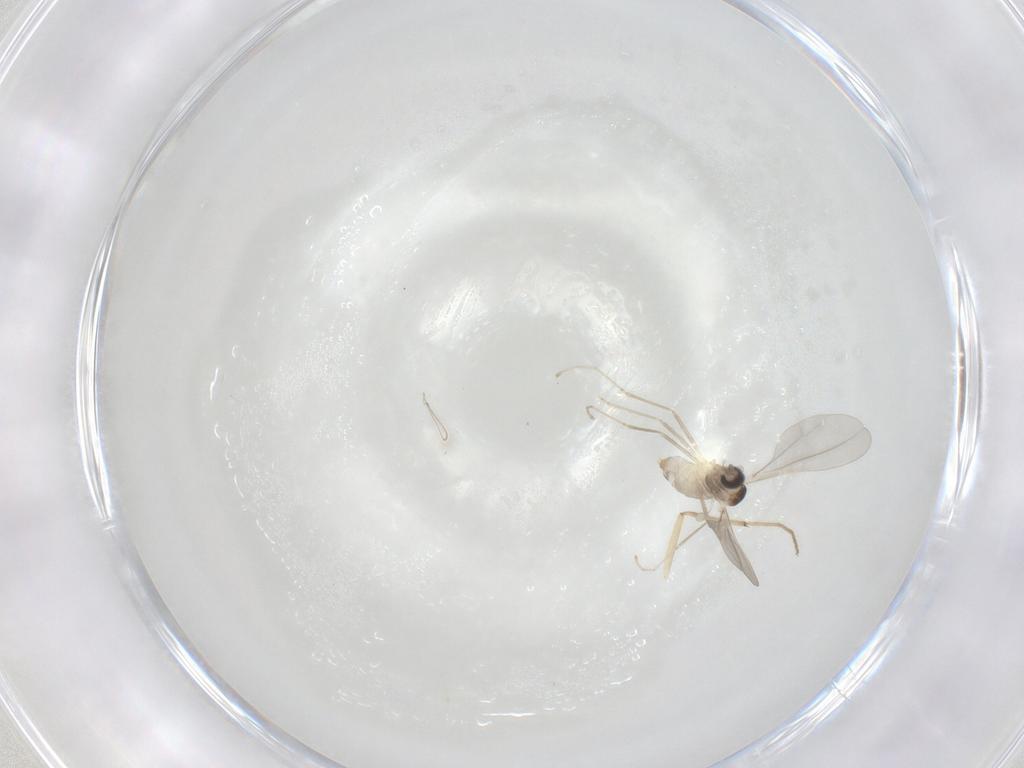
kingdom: Animalia
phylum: Arthropoda
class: Insecta
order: Diptera
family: Cecidomyiidae
